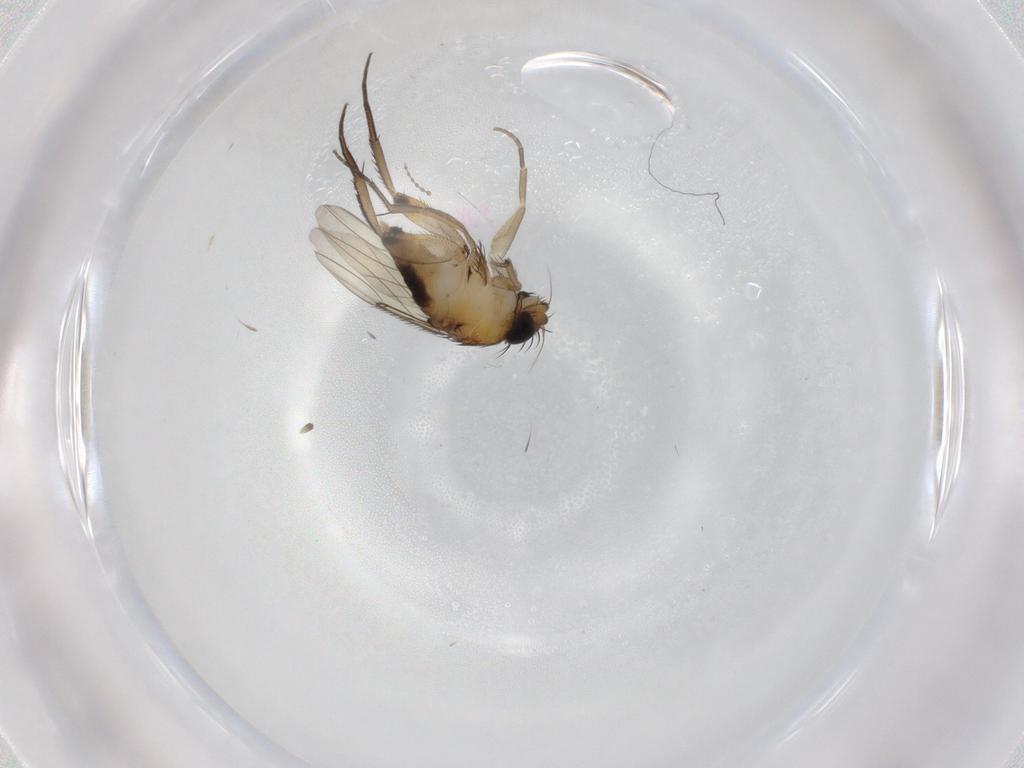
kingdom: Animalia
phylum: Arthropoda
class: Insecta
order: Diptera
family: Phoridae
